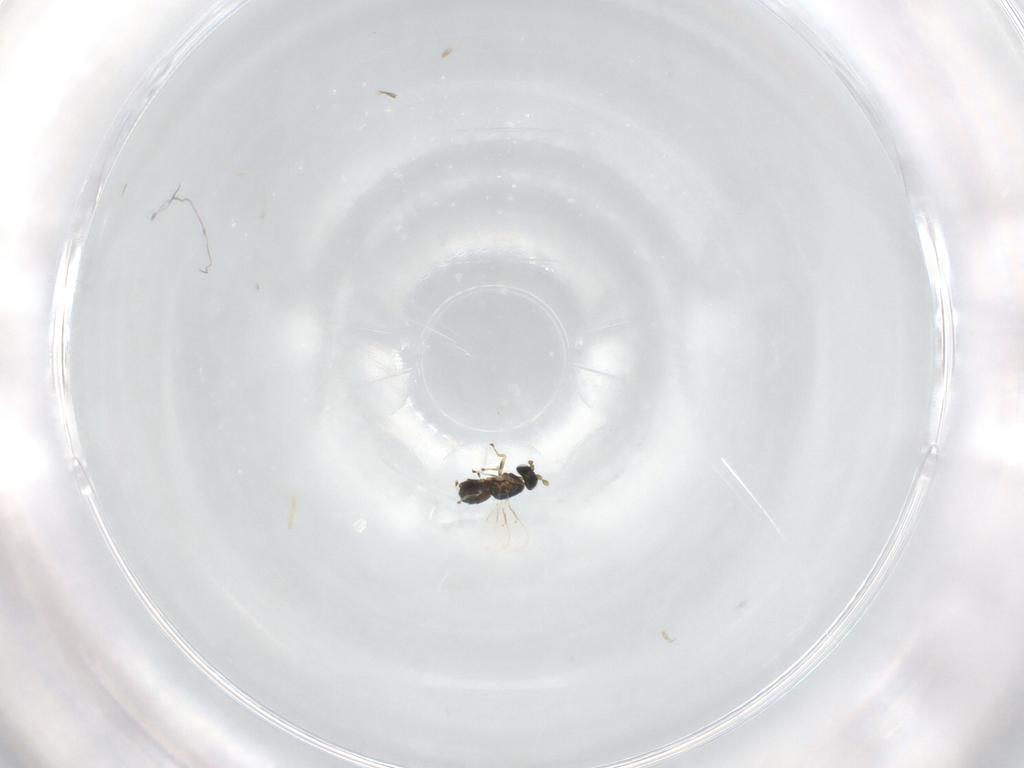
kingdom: Animalia
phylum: Arthropoda
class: Insecta
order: Hymenoptera
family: Eulophidae
